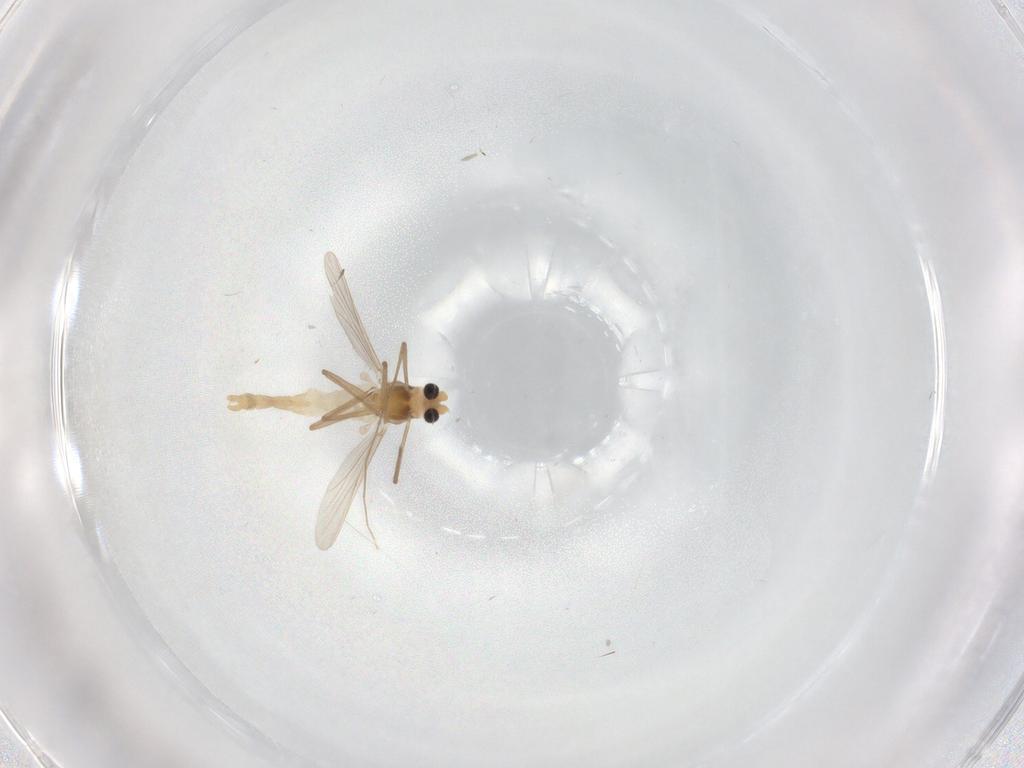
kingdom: Animalia
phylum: Arthropoda
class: Insecta
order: Diptera
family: Chironomidae
